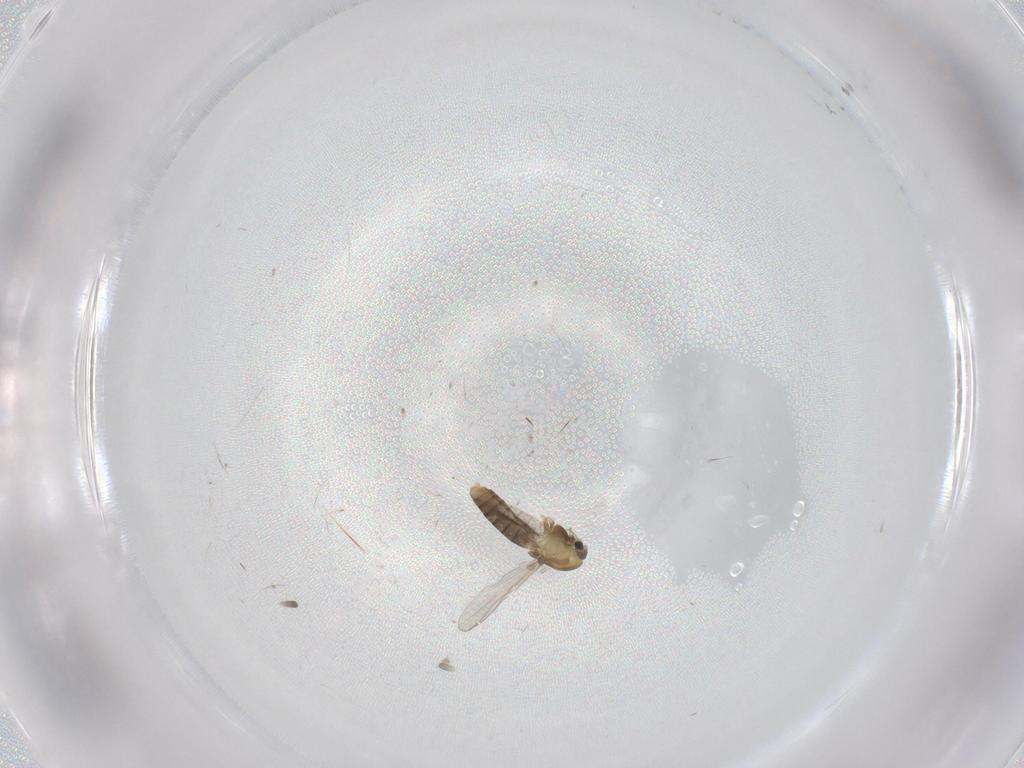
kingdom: Animalia
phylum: Arthropoda
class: Insecta
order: Diptera
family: Chironomidae
